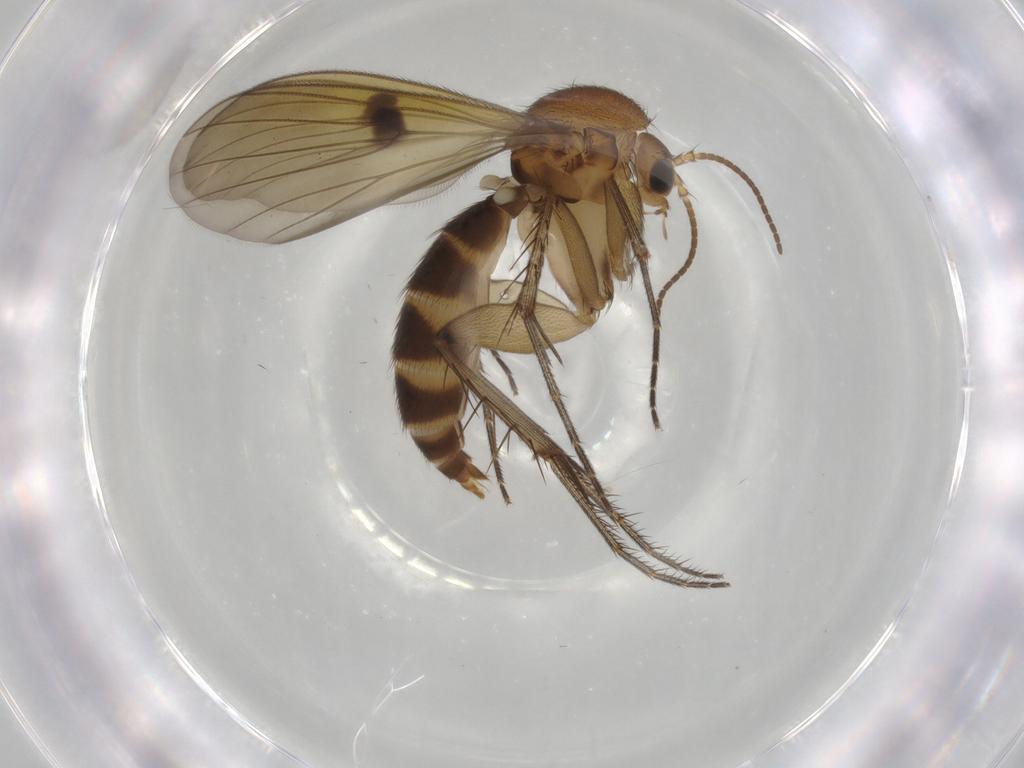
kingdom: Animalia
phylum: Arthropoda
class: Insecta
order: Diptera
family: Mycetophilidae
